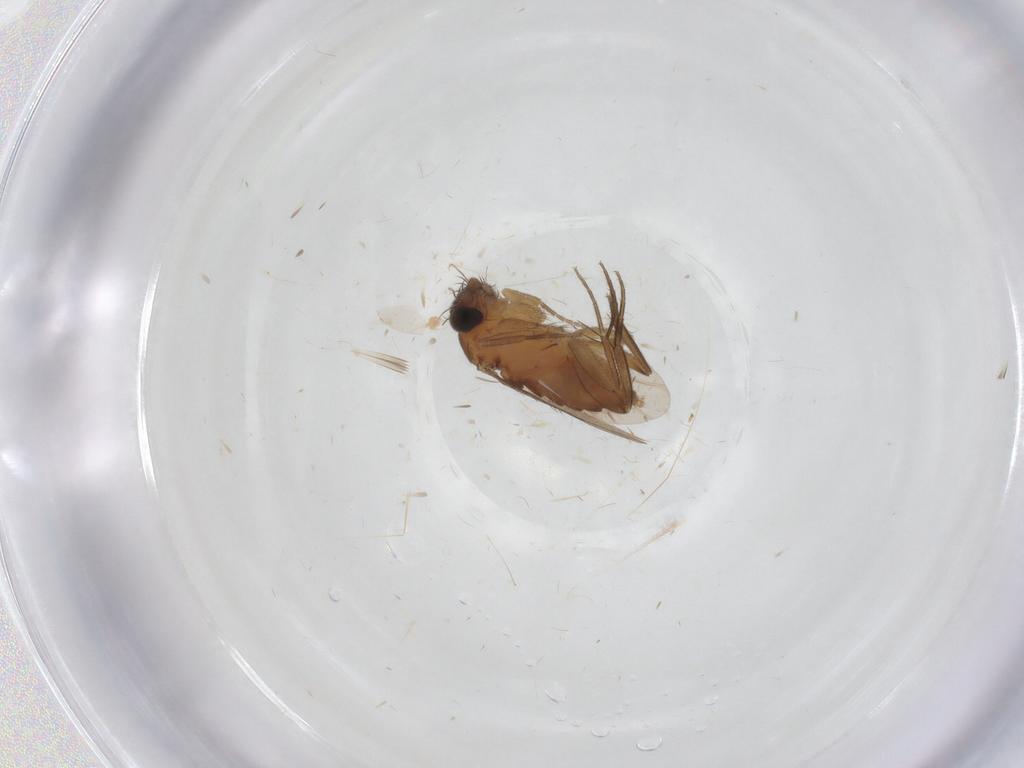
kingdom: Animalia
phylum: Arthropoda
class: Insecta
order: Diptera
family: Phoridae
